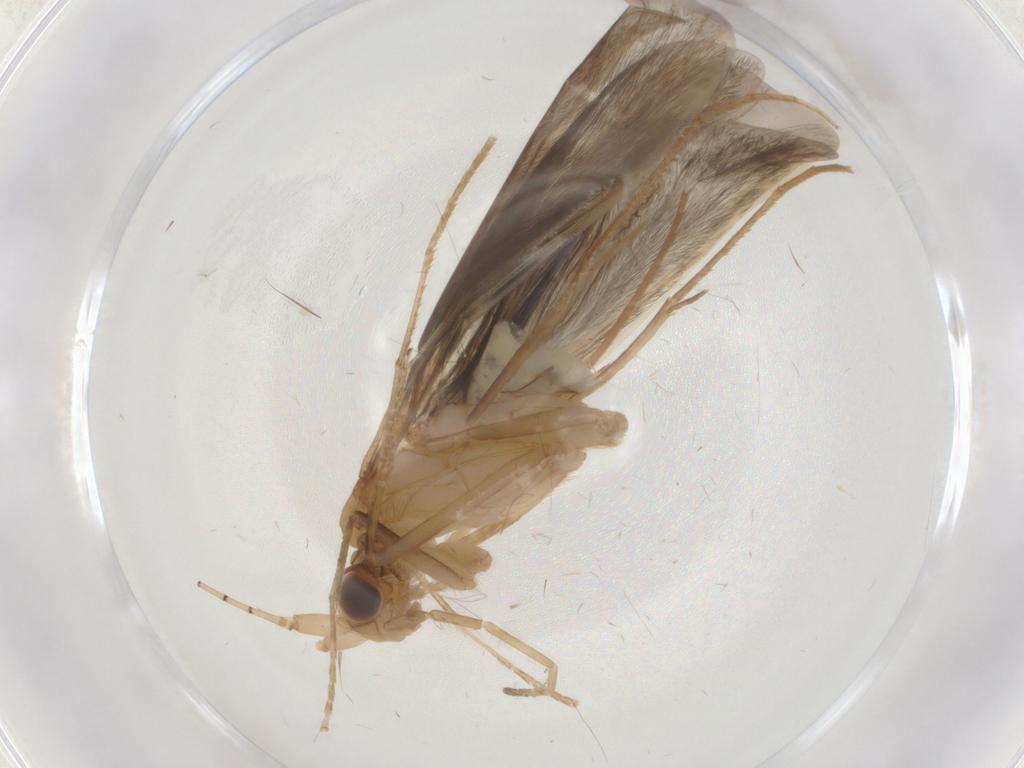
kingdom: Animalia
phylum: Arthropoda
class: Insecta
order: Trichoptera
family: Leptoceridae
